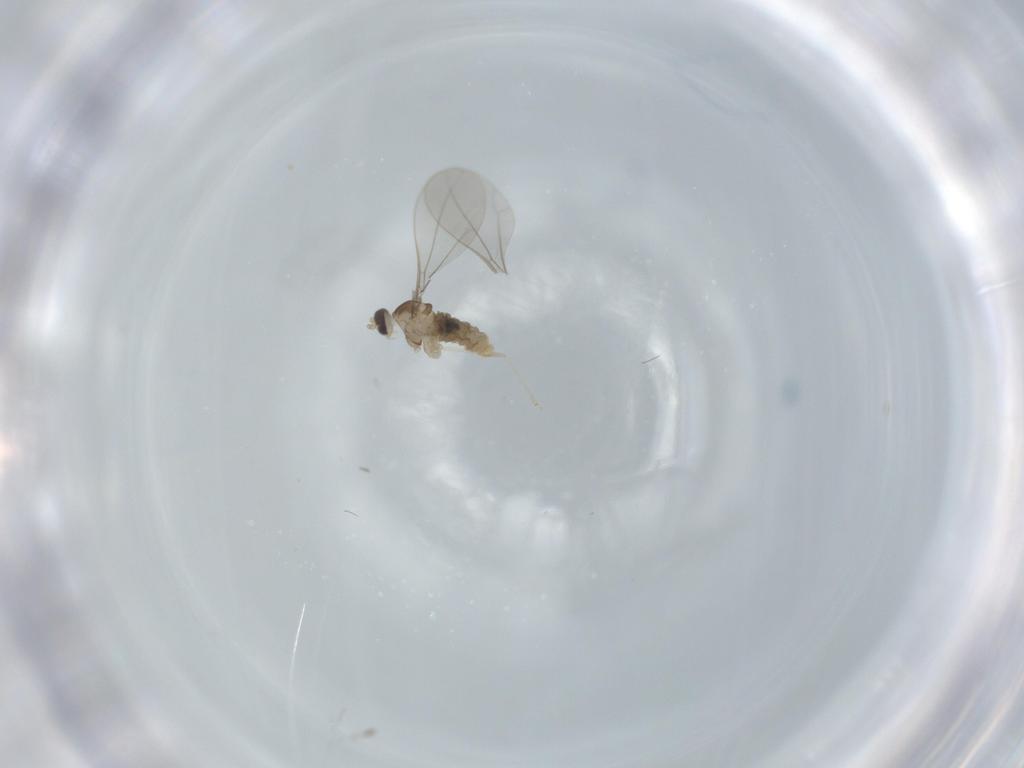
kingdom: Animalia
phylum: Arthropoda
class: Insecta
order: Diptera
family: Cecidomyiidae
